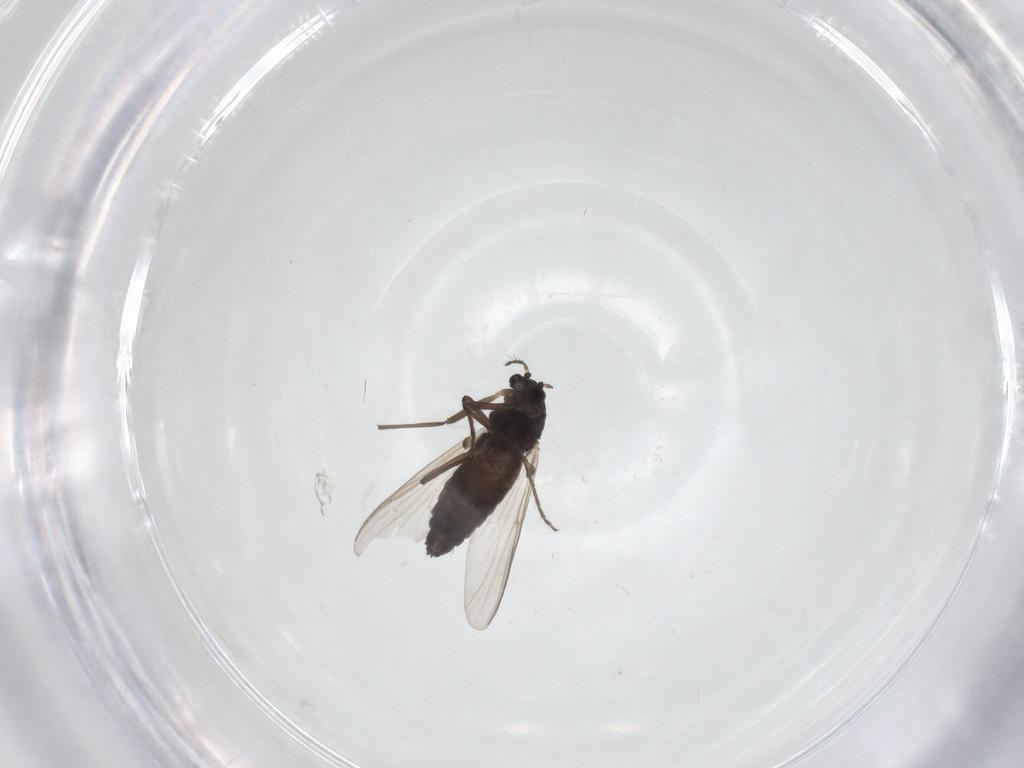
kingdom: Animalia
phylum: Arthropoda
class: Insecta
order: Diptera
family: Chironomidae
